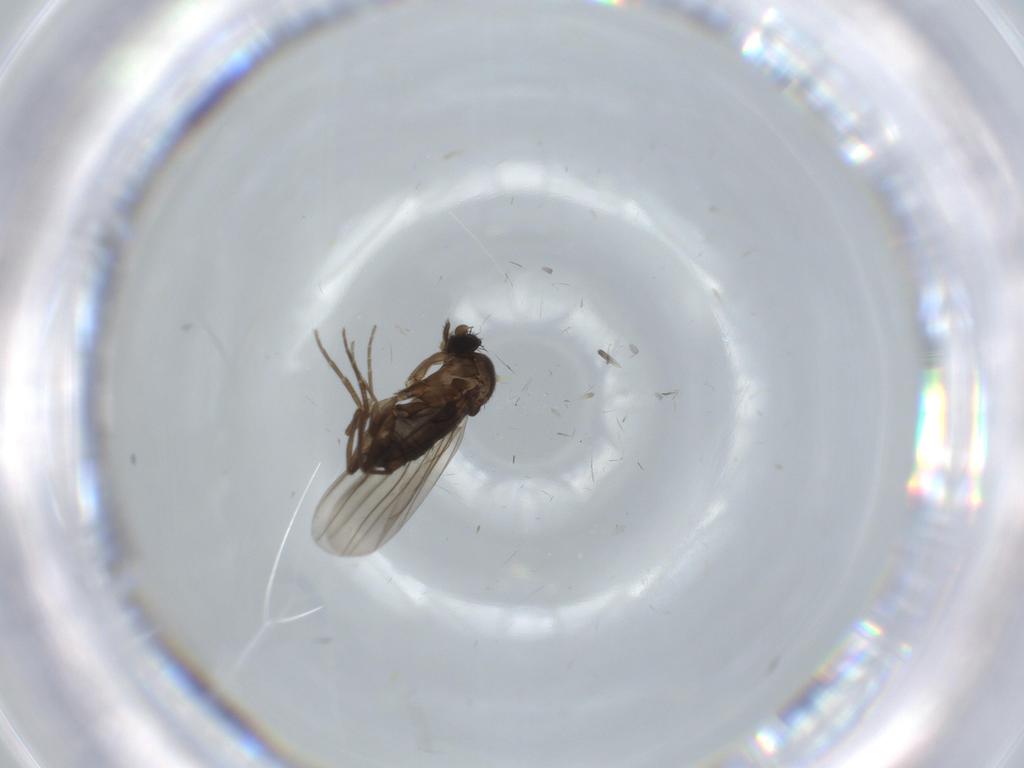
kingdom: Animalia
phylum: Arthropoda
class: Insecta
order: Diptera
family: Dolichopodidae
